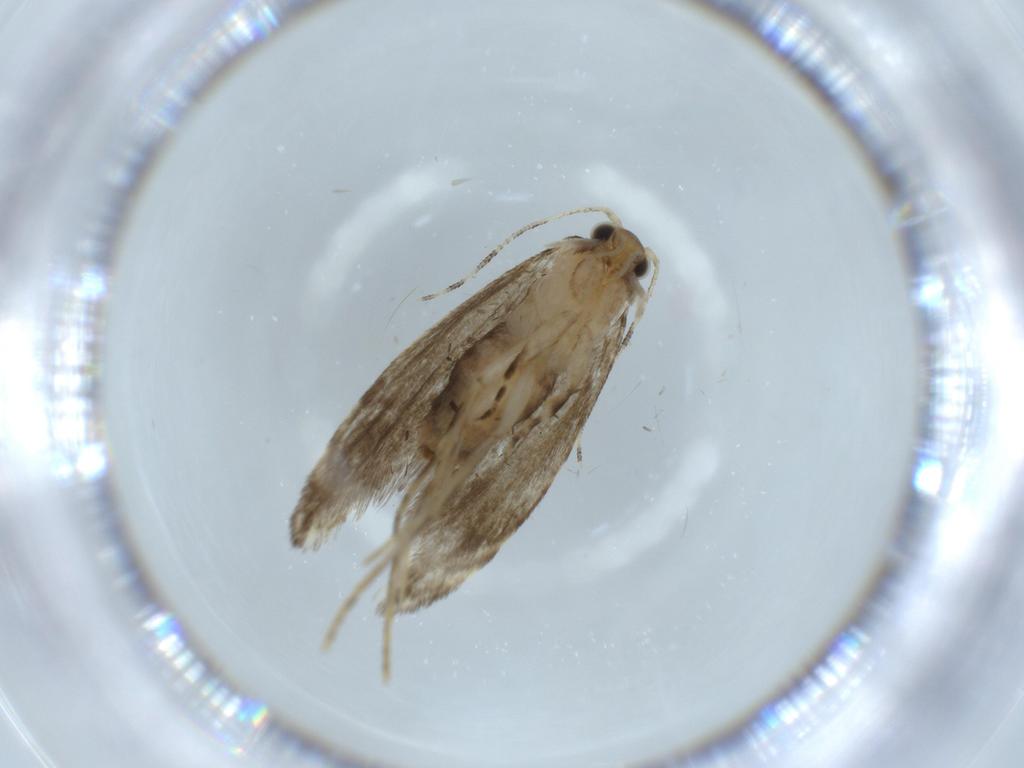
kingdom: Animalia
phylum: Arthropoda
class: Insecta
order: Lepidoptera
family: Tineidae
